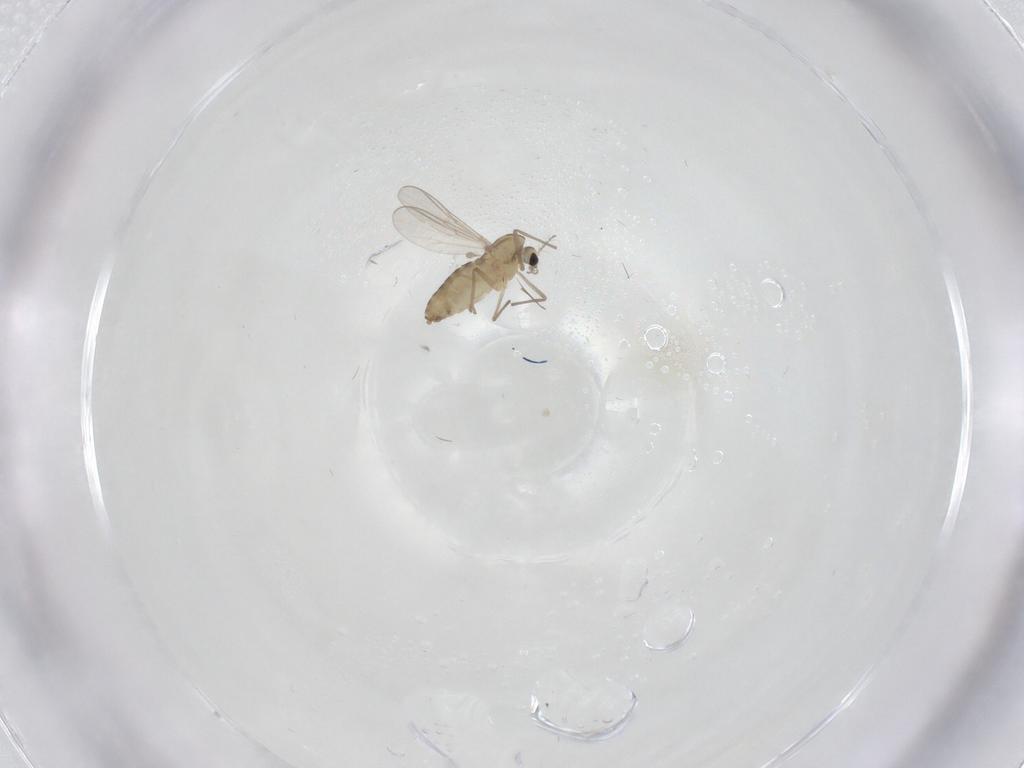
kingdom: Animalia
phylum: Arthropoda
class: Insecta
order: Diptera
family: Chironomidae
